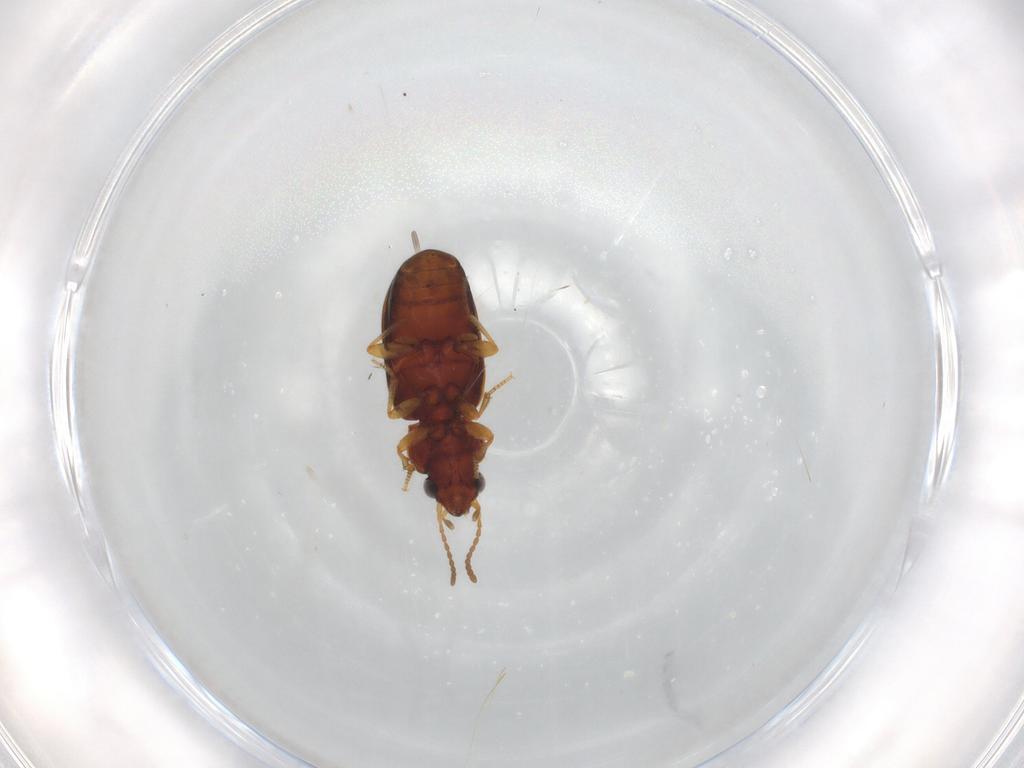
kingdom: Animalia
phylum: Arthropoda
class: Insecta
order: Coleoptera
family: Carabidae
